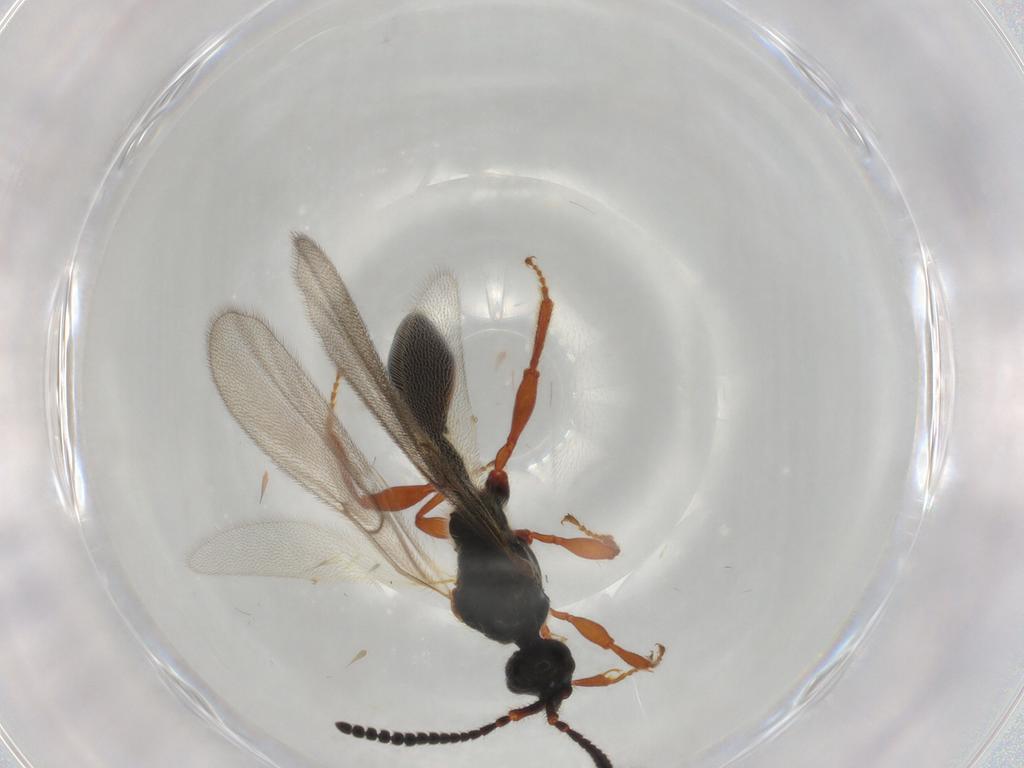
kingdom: Animalia
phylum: Arthropoda
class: Insecta
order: Hymenoptera
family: Diapriidae
